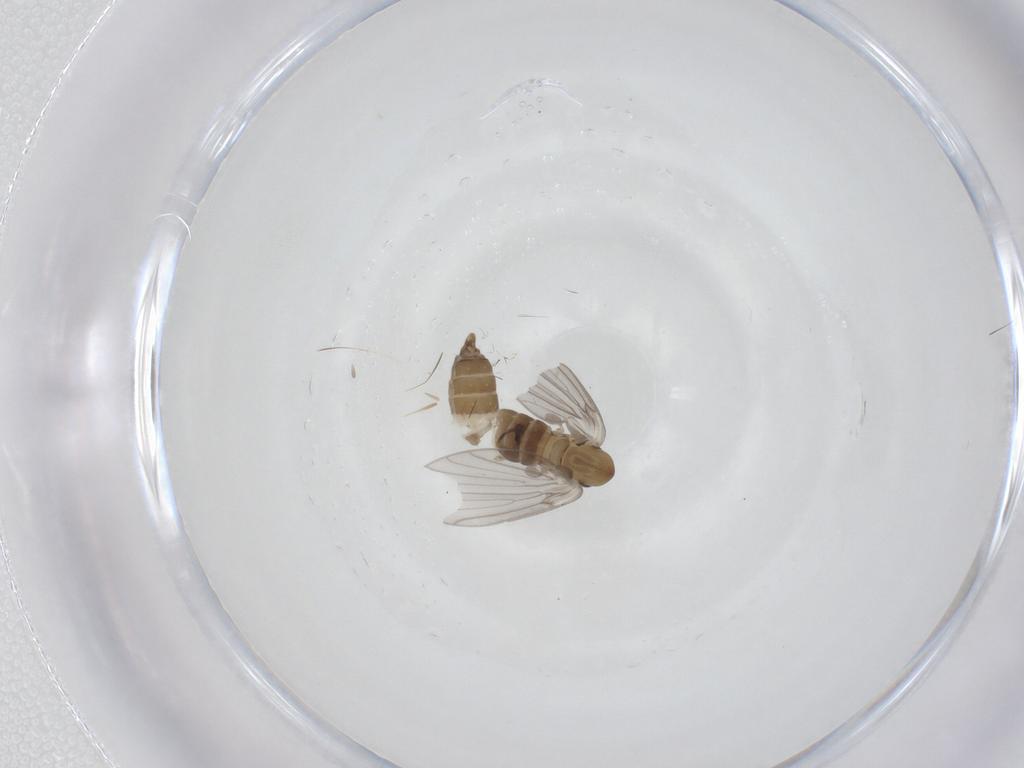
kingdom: Animalia
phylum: Arthropoda
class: Insecta
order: Diptera
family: Psychodidae
